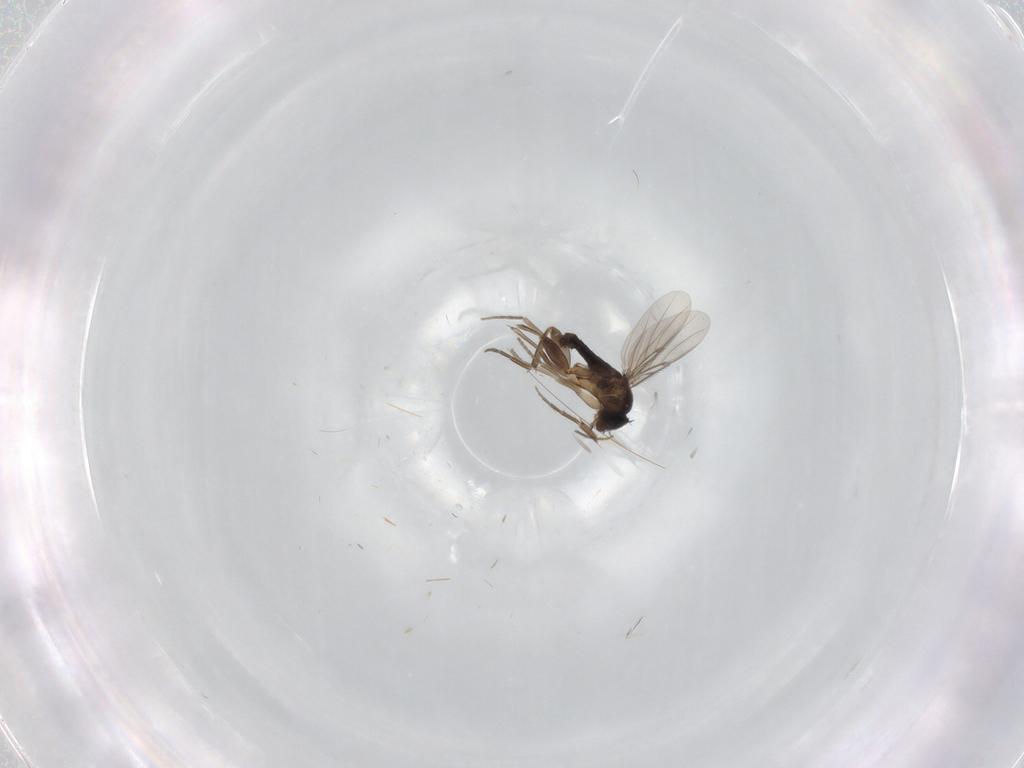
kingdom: Animalia
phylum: Arthropoda
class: Insecta
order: Diptera
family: Phoridae
